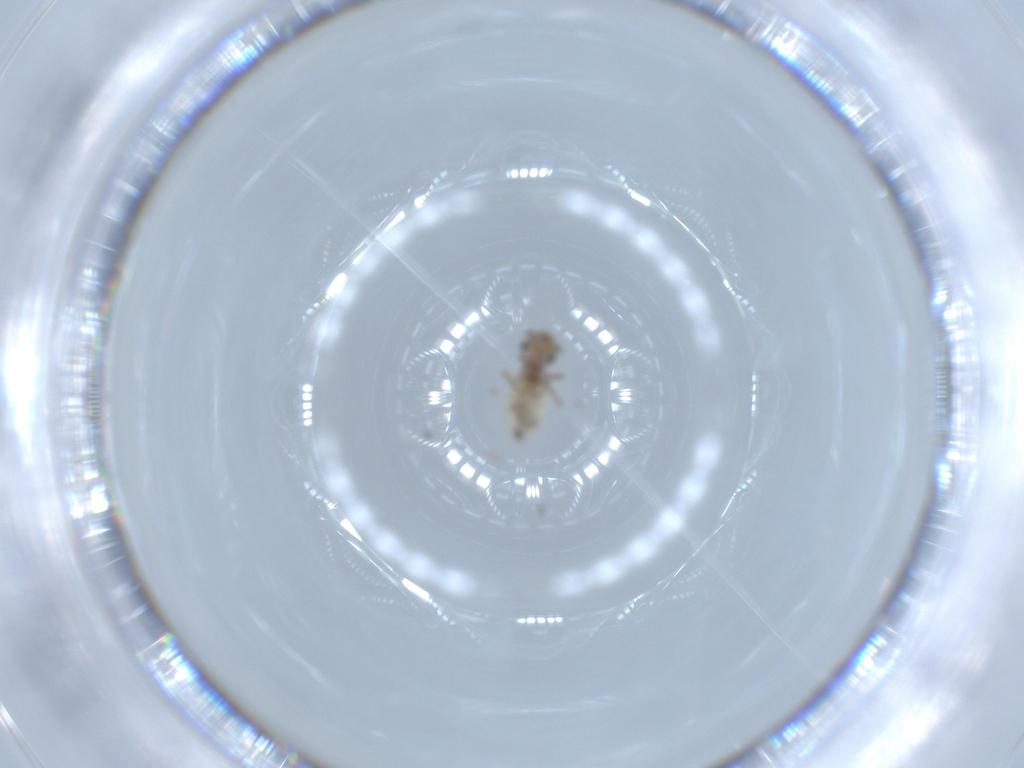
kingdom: Animalia
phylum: Arthropoda
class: Insecta
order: Psocodea
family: Lepidopsocidae
